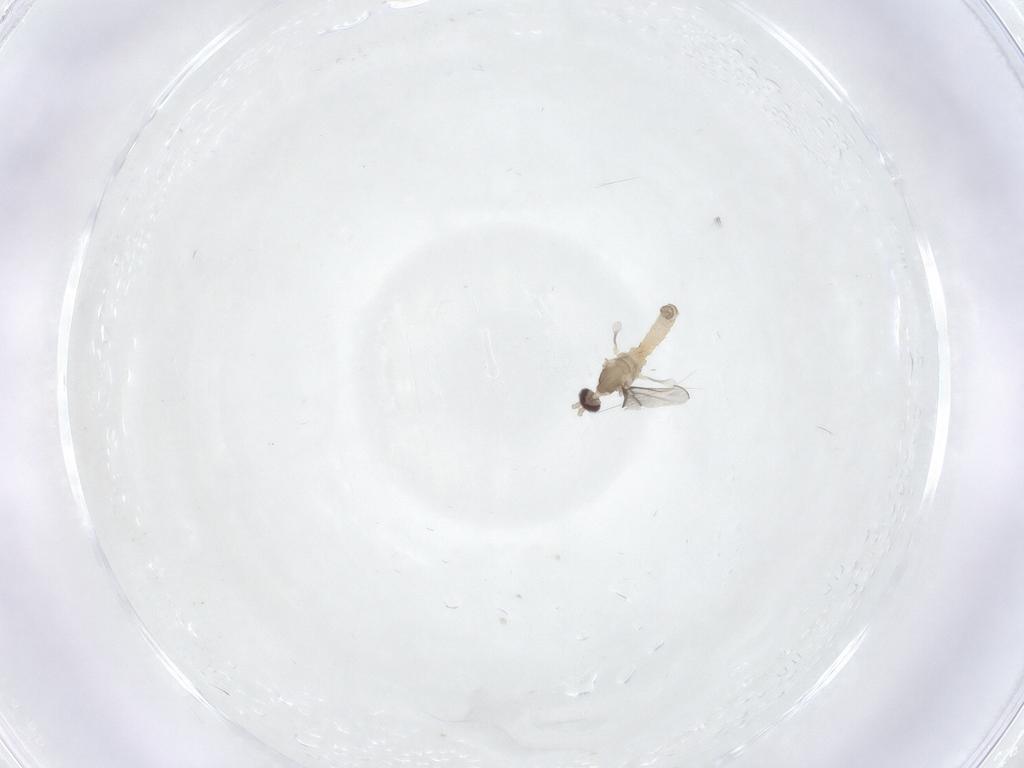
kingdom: Animalia
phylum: Arthropoda
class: Insecta
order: Diptera
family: Cecidomyiidae
